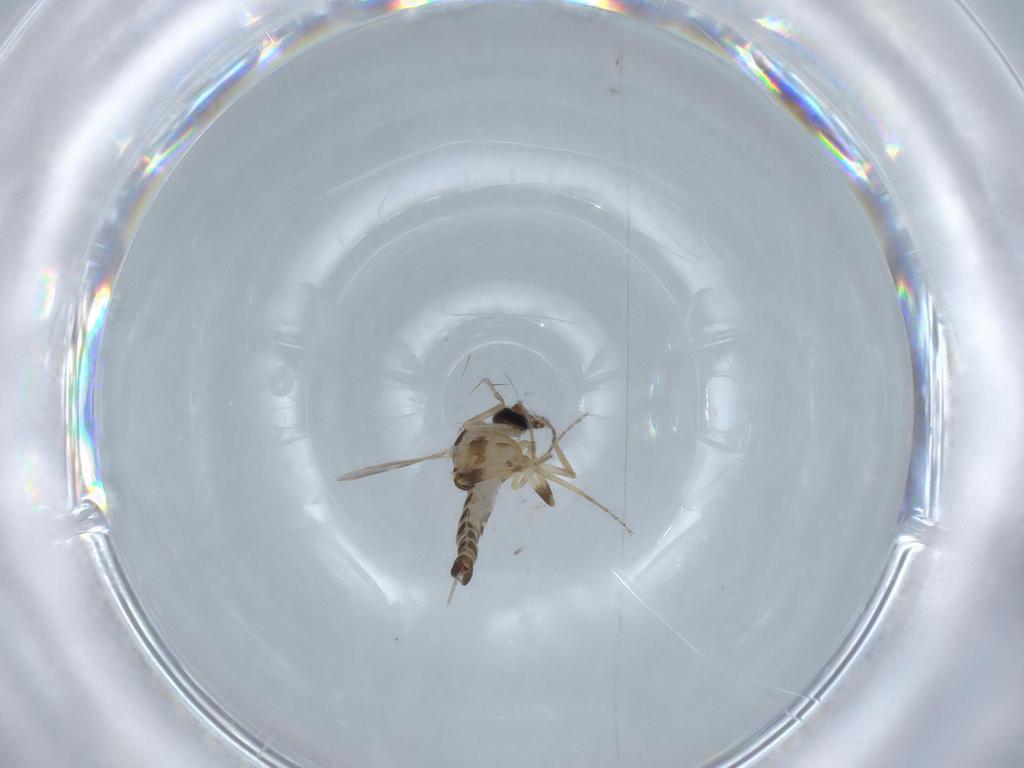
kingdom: Animalia
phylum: Arthropoda
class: Insecta
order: Diptera
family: Ceratopogonidae
